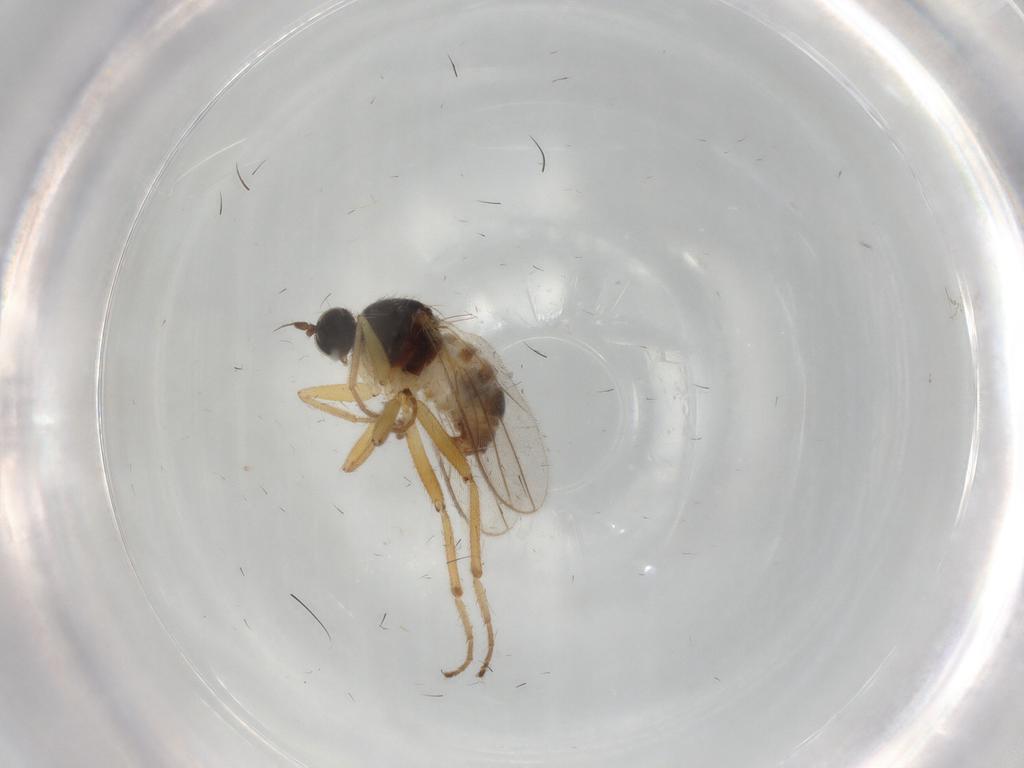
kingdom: Animalia
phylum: Arthropoda
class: Insecta
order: Diptera
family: Hybotidae
